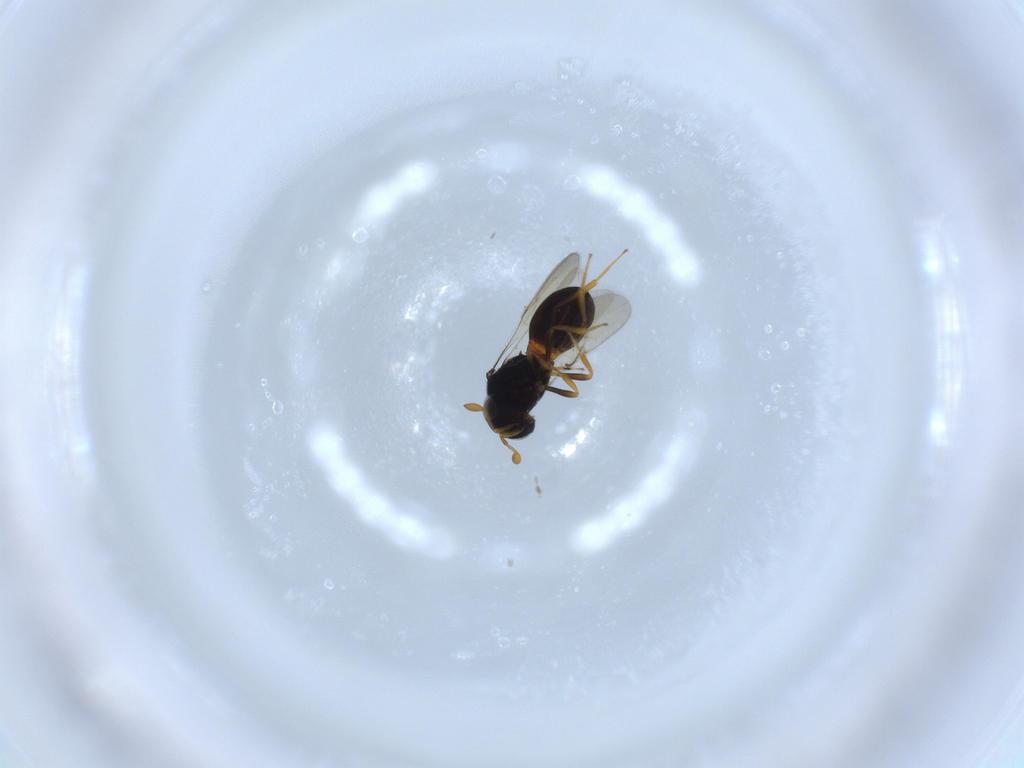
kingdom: Animalia
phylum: Arthropoda
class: Insecta
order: Hymenoptera
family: Scelionidae
